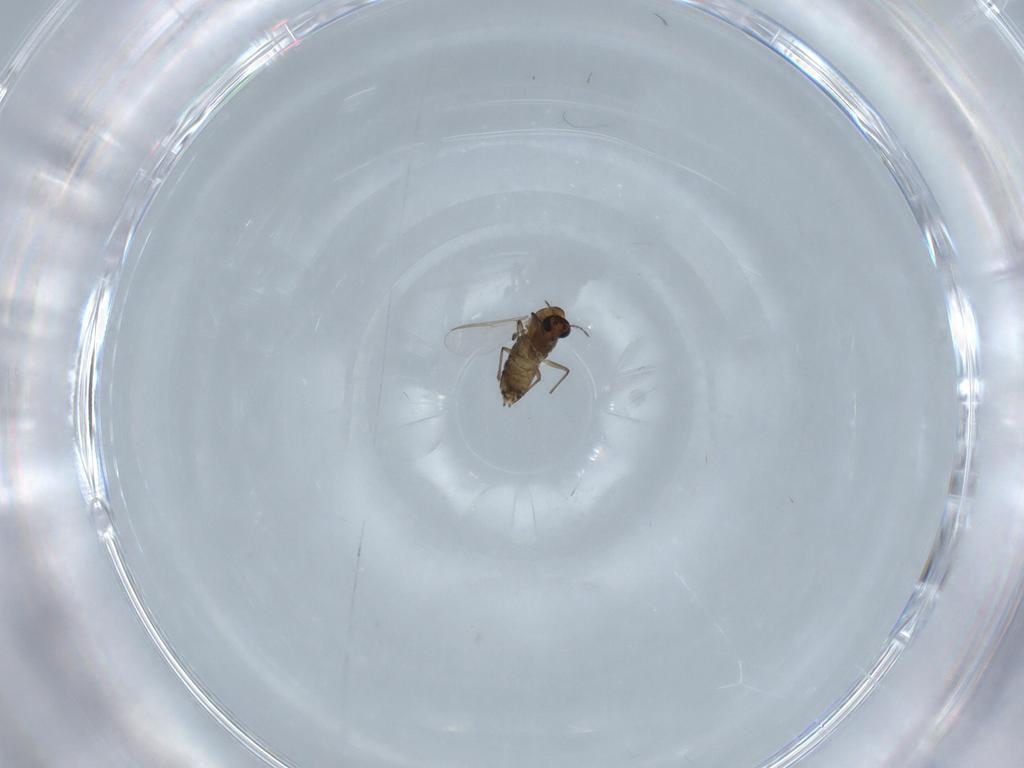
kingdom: Animalia
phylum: Arthropoda
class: Insecta
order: Diptera
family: Chironomidae
